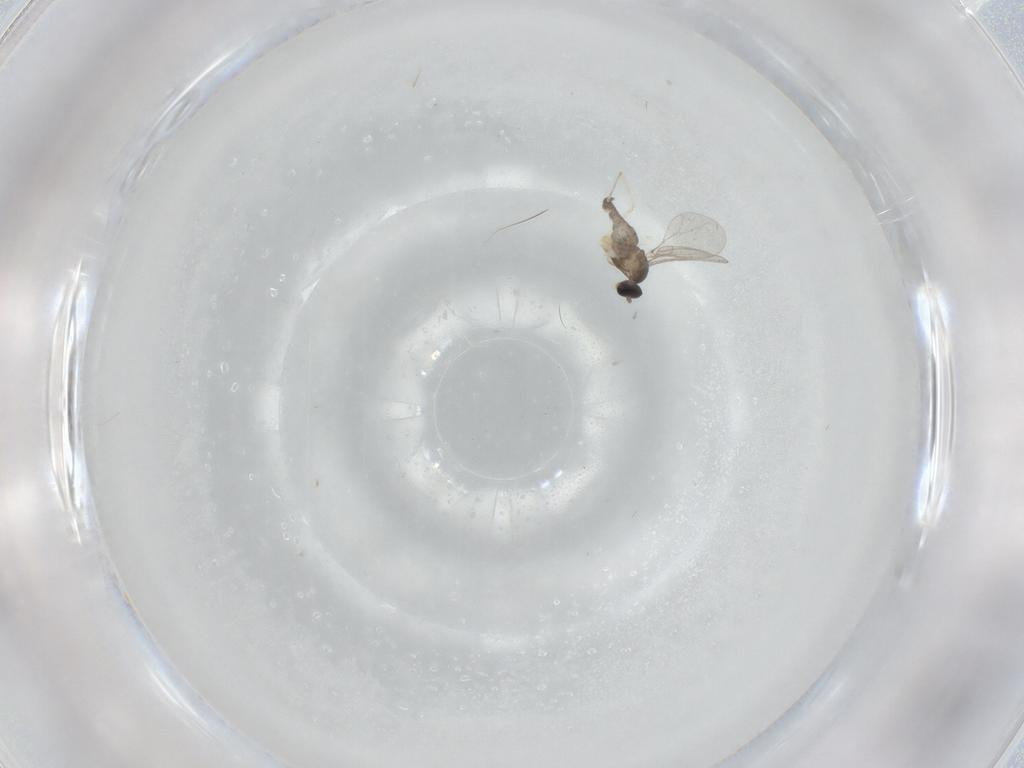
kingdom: Animalia
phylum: Arthropoda
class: Insecta
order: Diptera
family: Cecidomyiidae
